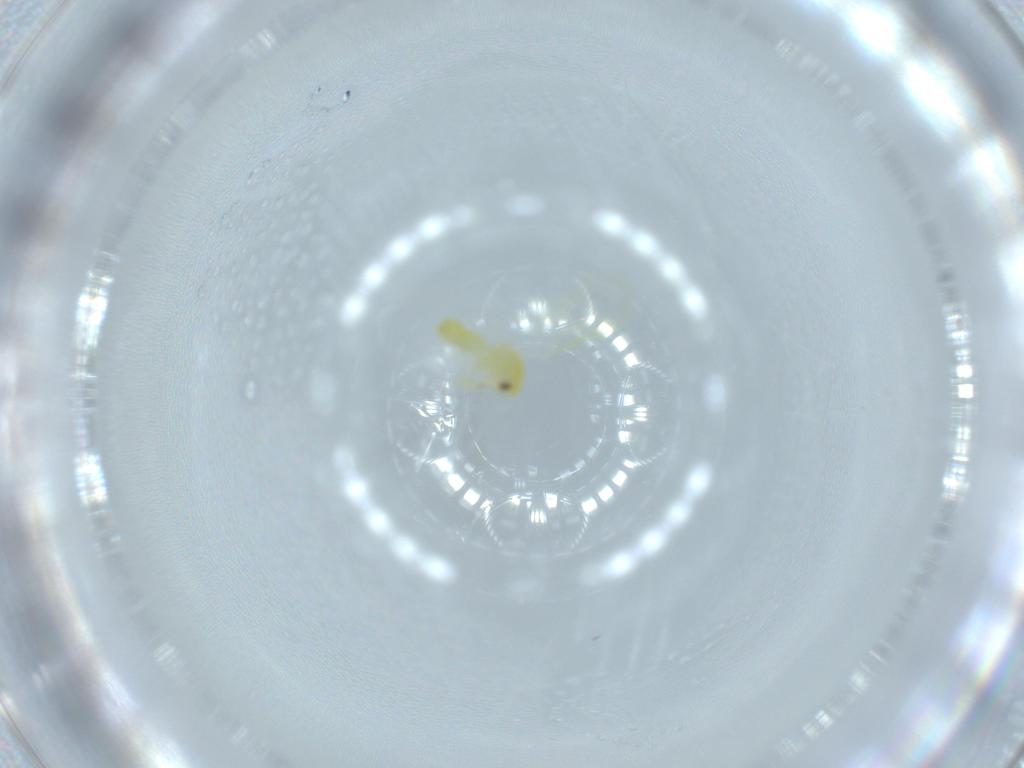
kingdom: Animalia
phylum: Arthropoda
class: Insecta
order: Hemiptera
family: Aleyrodidae
